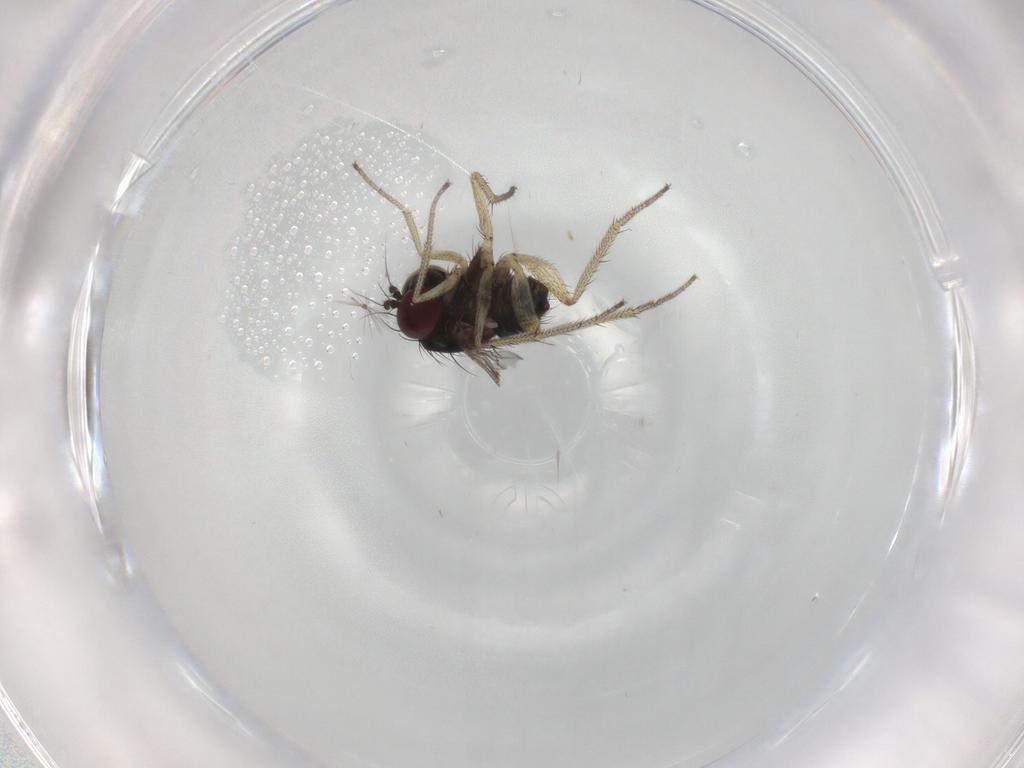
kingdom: Animalia
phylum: Arthropoda
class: Insecta
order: Diptera
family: Dolichopodidae
